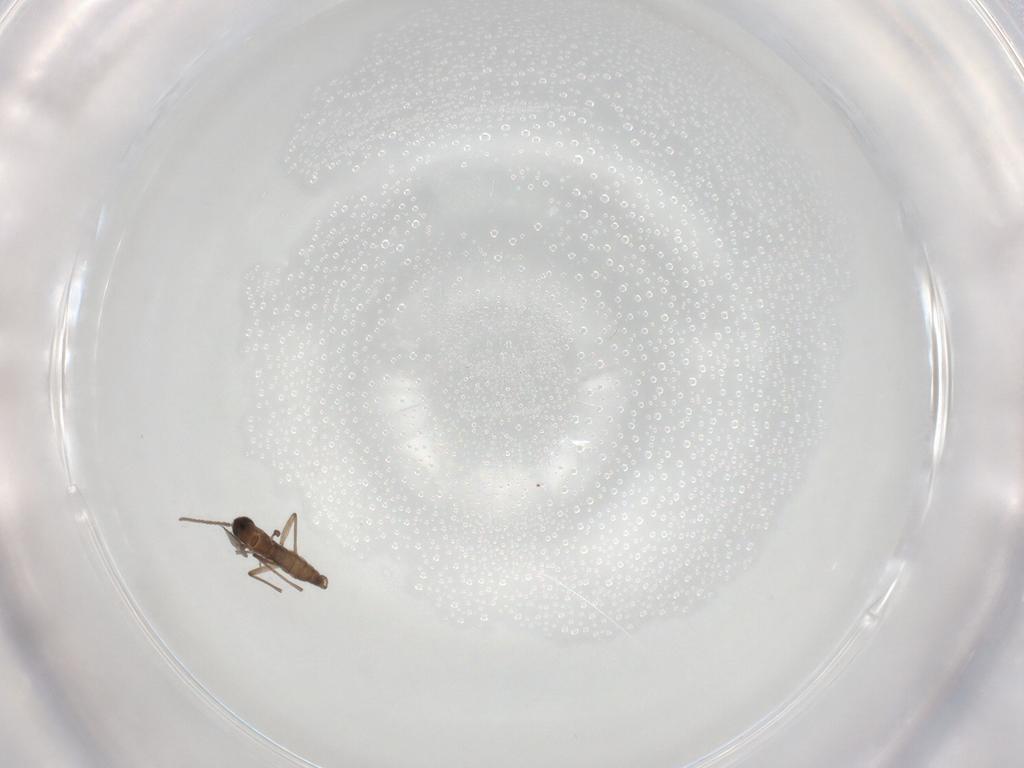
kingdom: Animalia
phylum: Arthropoda
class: Insecta
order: Diptera
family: Sciaridae
